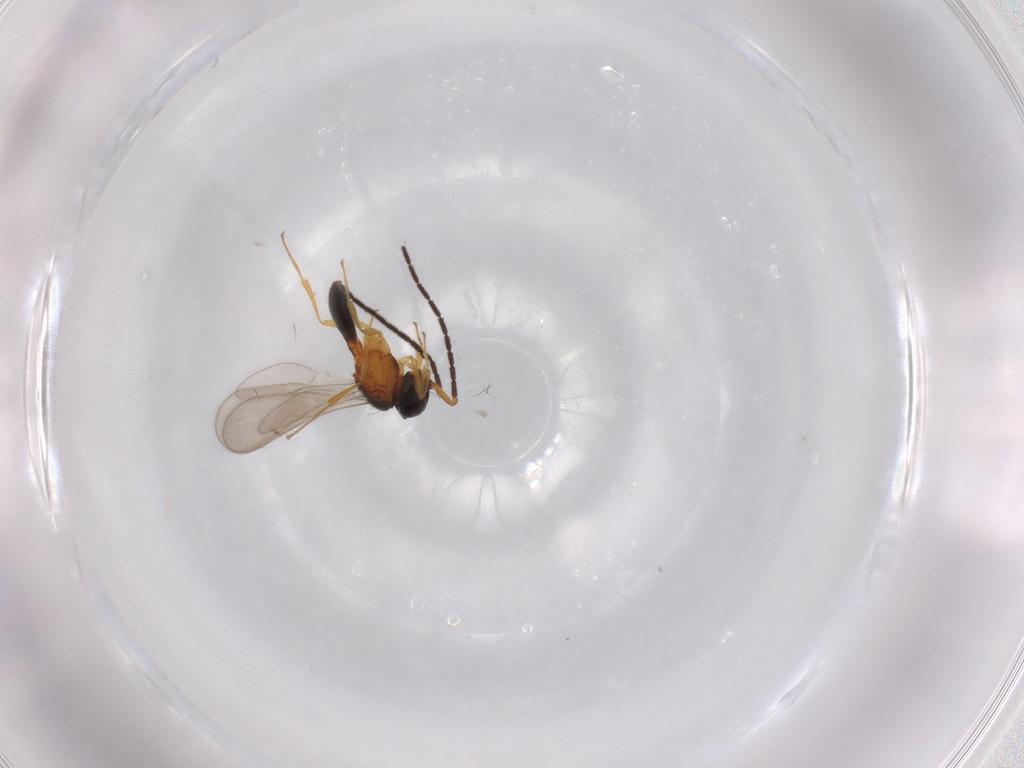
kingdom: Animalia
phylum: Arthropoda
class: Insecta
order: Hymenoptera
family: Scelionidae
